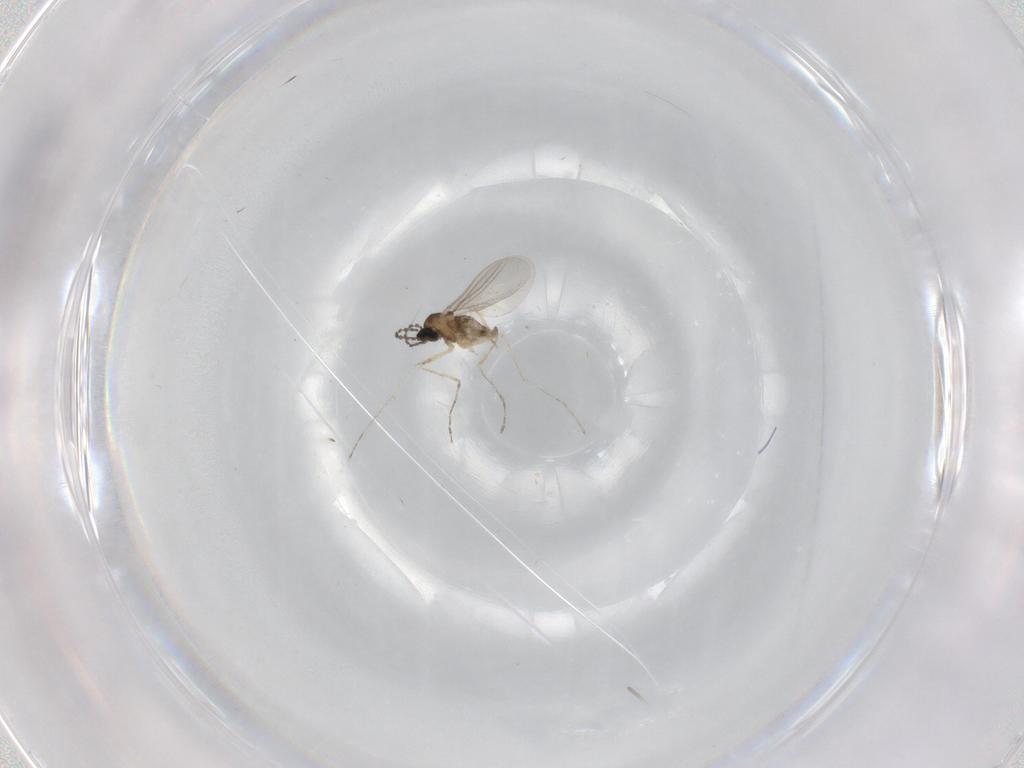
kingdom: Animalia
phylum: Arthropoda
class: Insecta
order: Diptera
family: Cecidomyiidae
